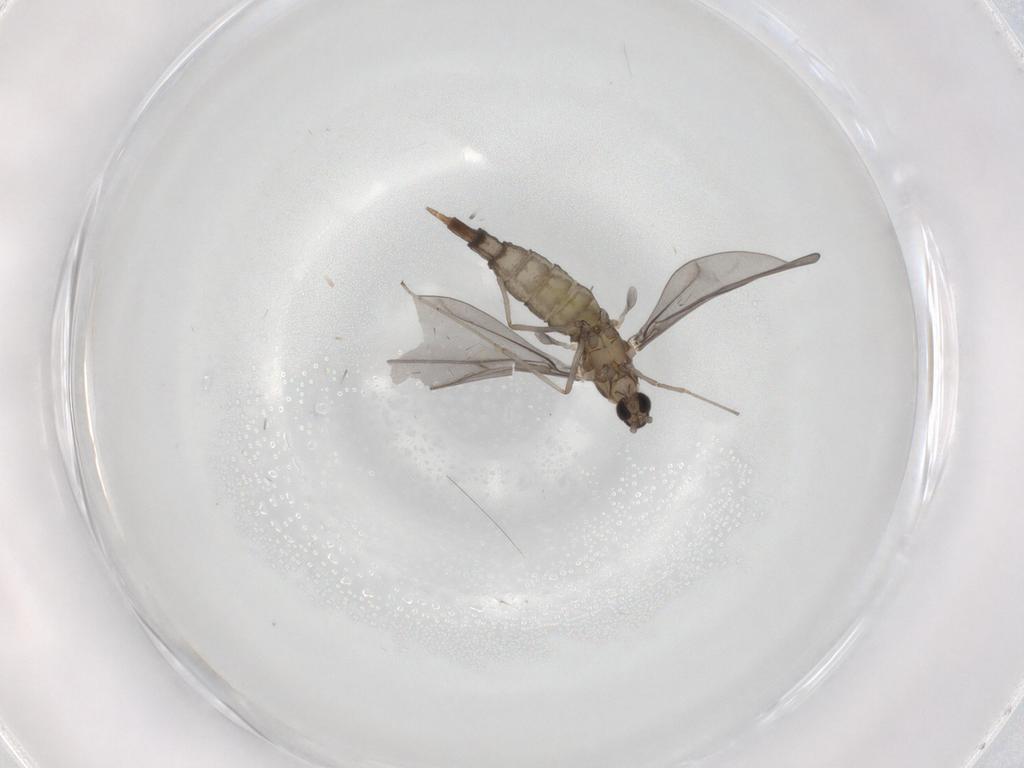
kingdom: Animalia
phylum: Arthropoda
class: Insecta
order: Diptera
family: Cecidomyiidae
